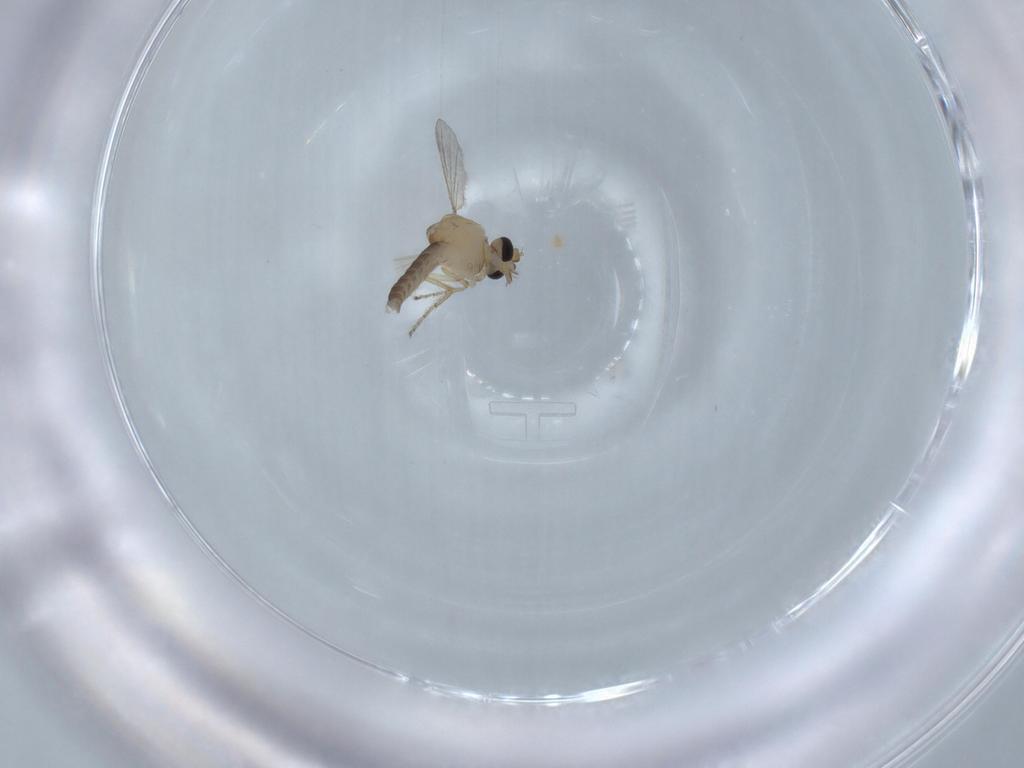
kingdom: Animalia
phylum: Arthropoda
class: Insecta
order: Diptera
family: Ceratopogonidae
